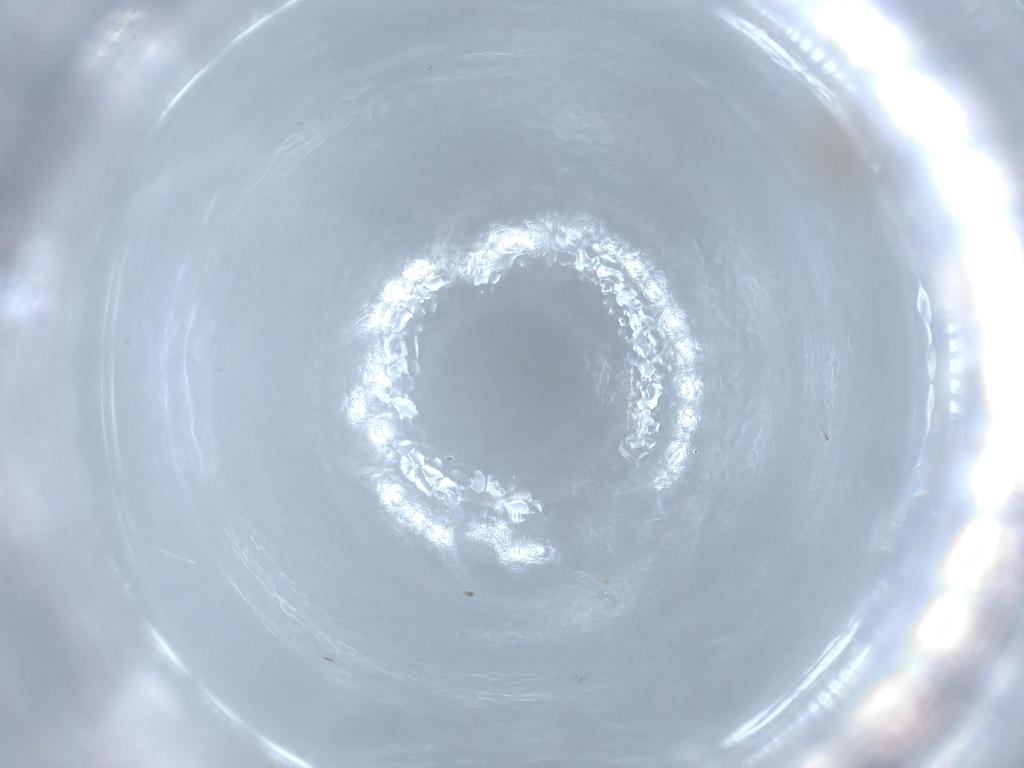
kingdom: Animalia
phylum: Arthropoda
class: Insecta
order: Diptera
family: Cecidomyiidae
